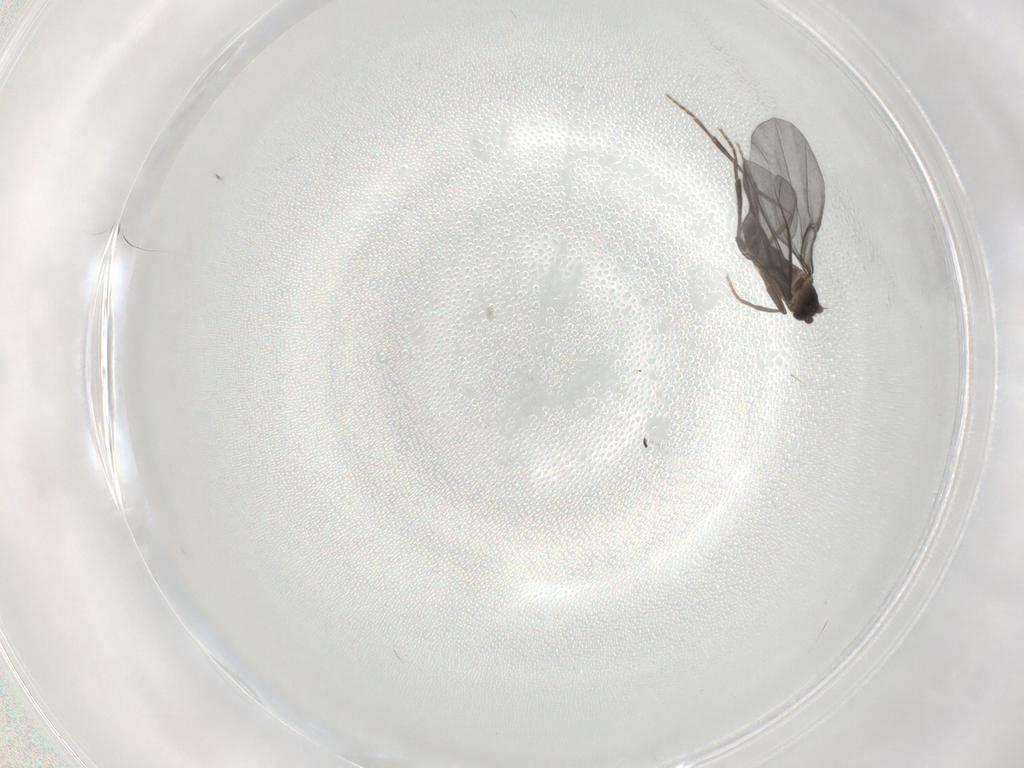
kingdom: Animalia
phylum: Arthropoda
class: Insecta
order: Diptera
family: Phoridae
